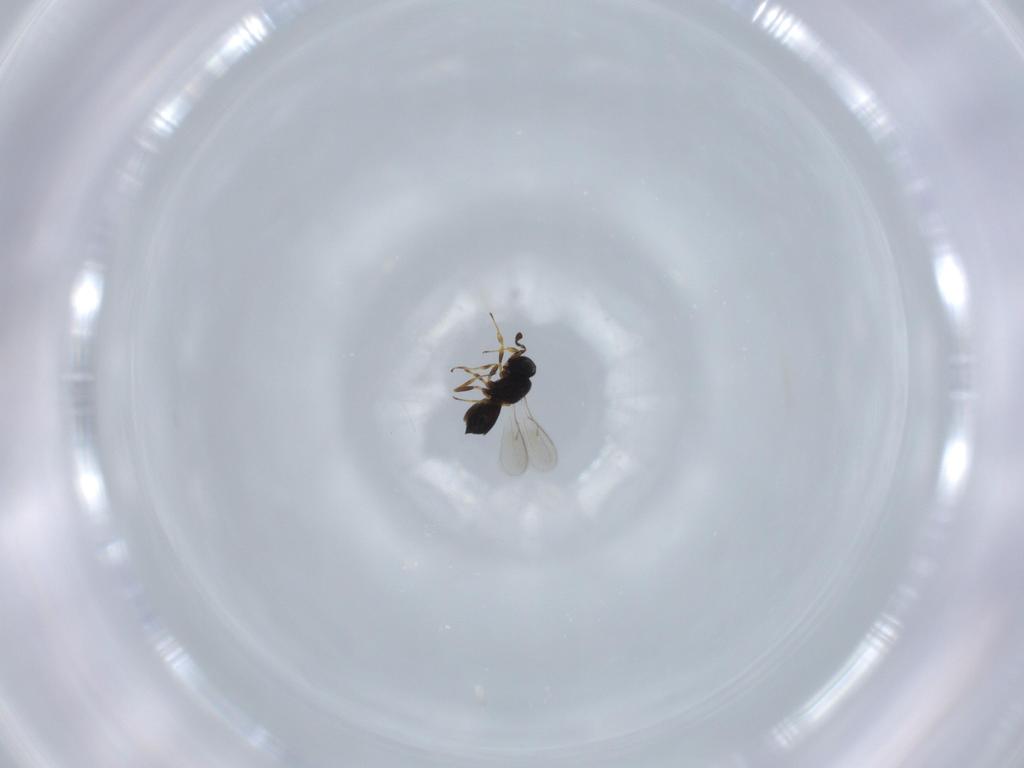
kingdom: Animalia
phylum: Arthropoda
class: Insecta
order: Hymenoptera
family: Scelionidae
